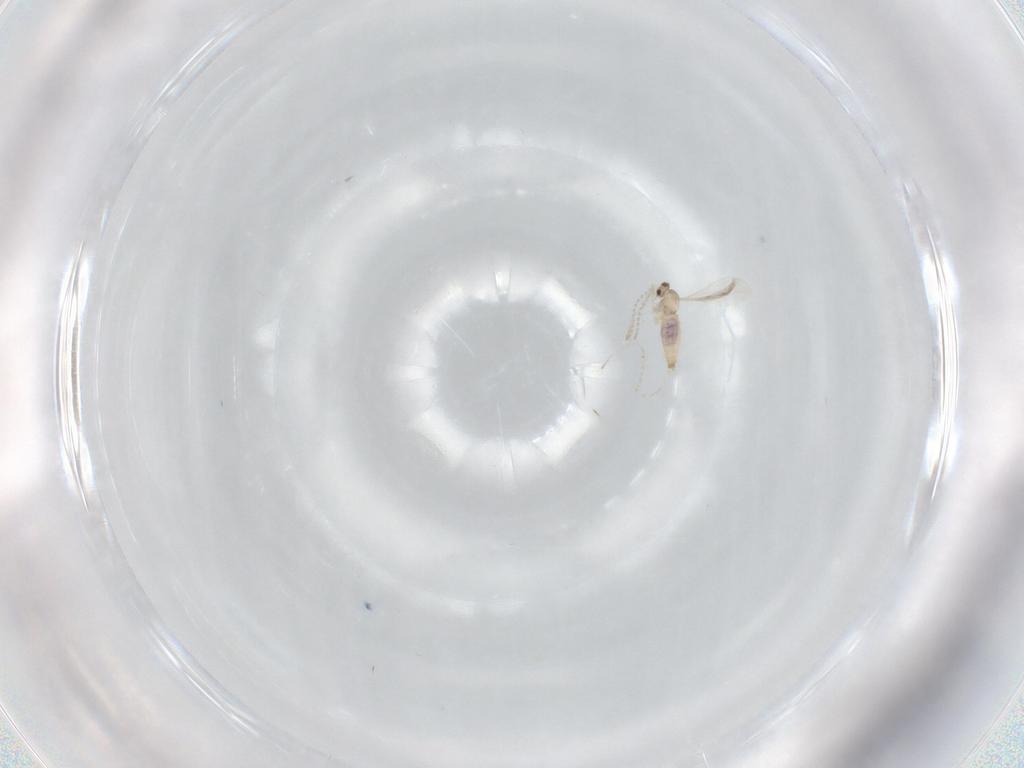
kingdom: Animalia
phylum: Arthropoda
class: Insecta
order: Diptera
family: Cecidomyiidae
